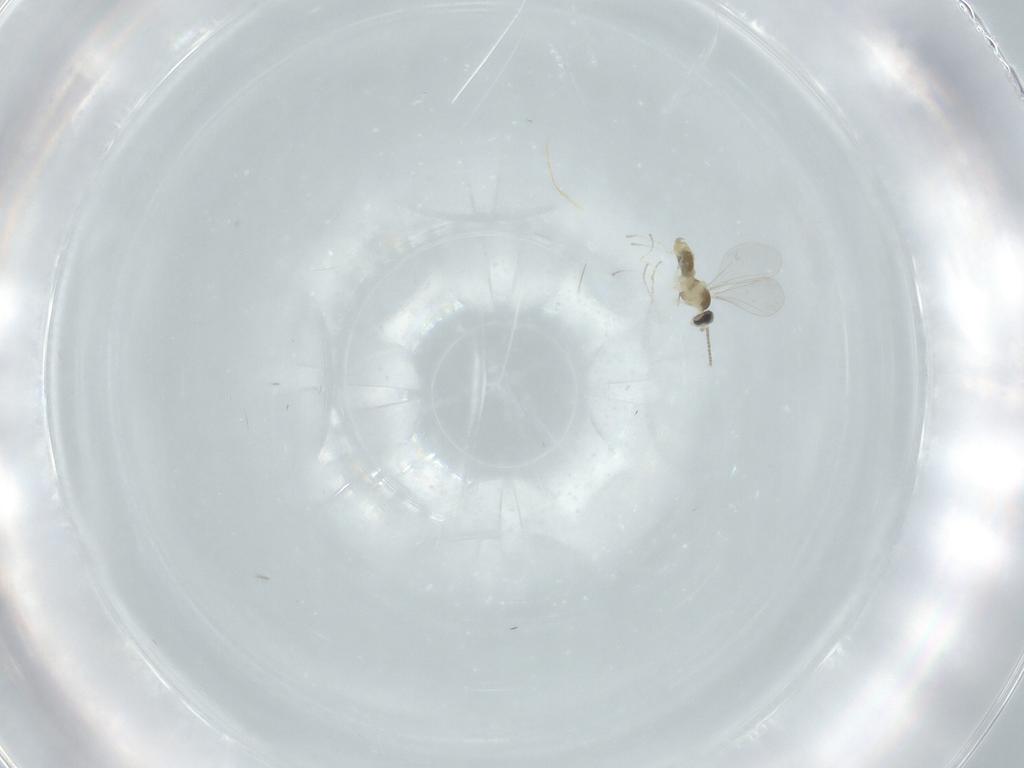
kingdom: Animalia
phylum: Arthropoda
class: Insecta
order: Diptera
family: Cecidomyiidae
